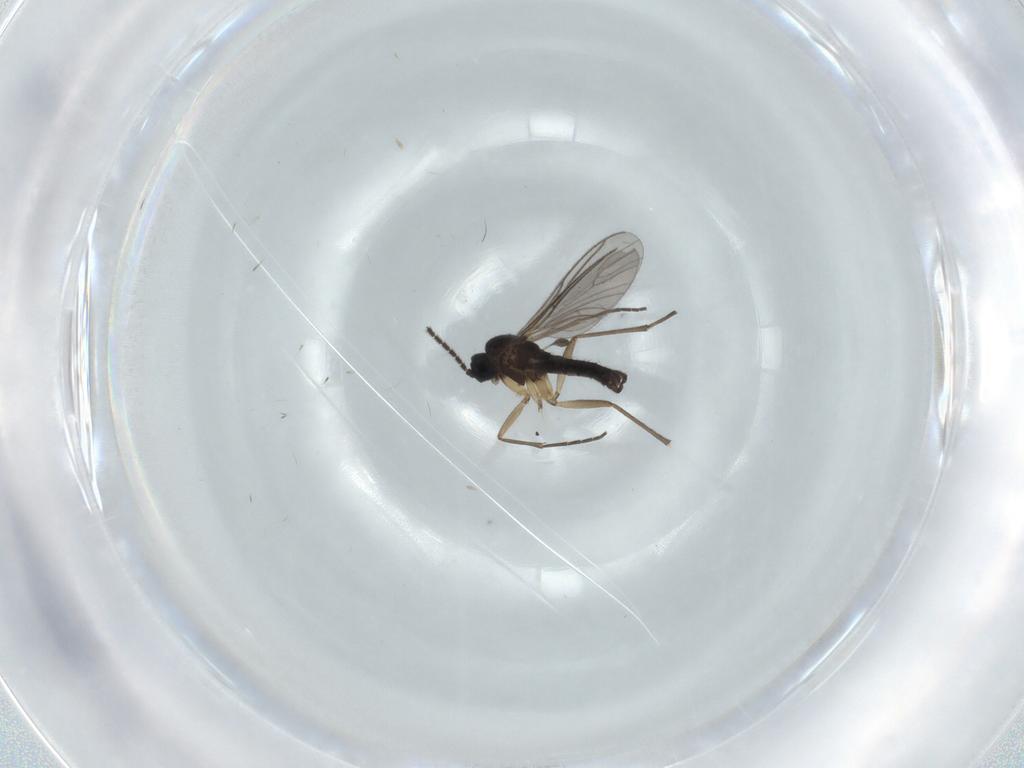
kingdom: Animalia
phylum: Arthropoda
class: Insecta
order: Diptera
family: Sciaridae
